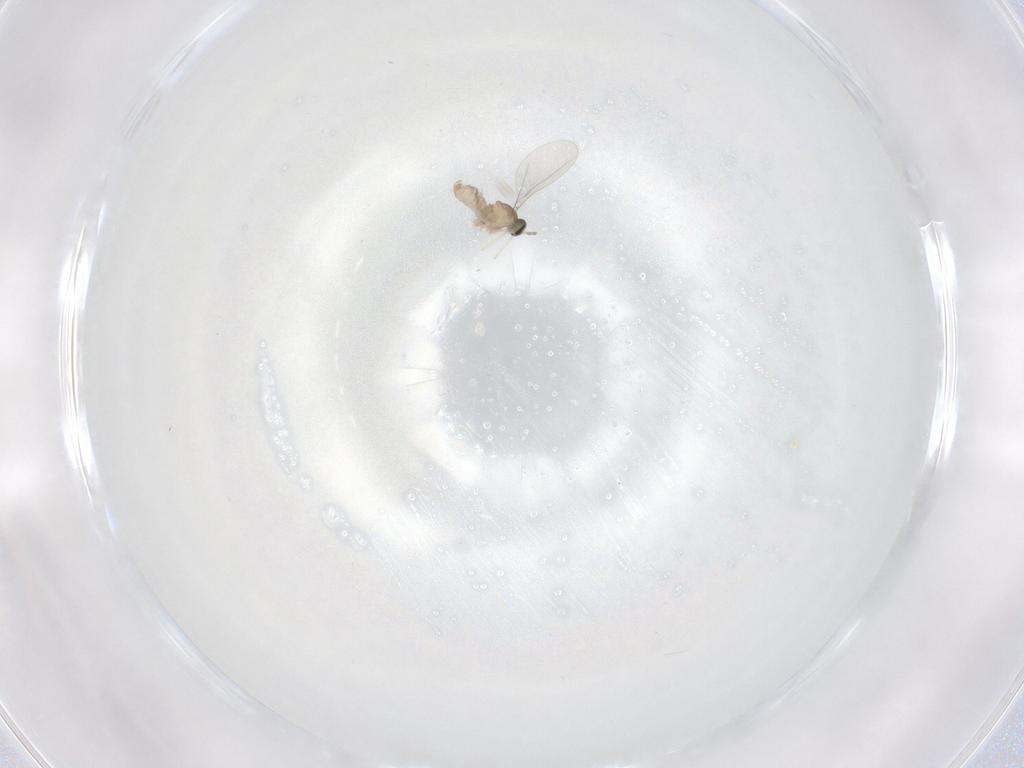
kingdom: Animalia
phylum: Arthropoda
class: Insecta
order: Diptera
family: Cecidomyiidae
